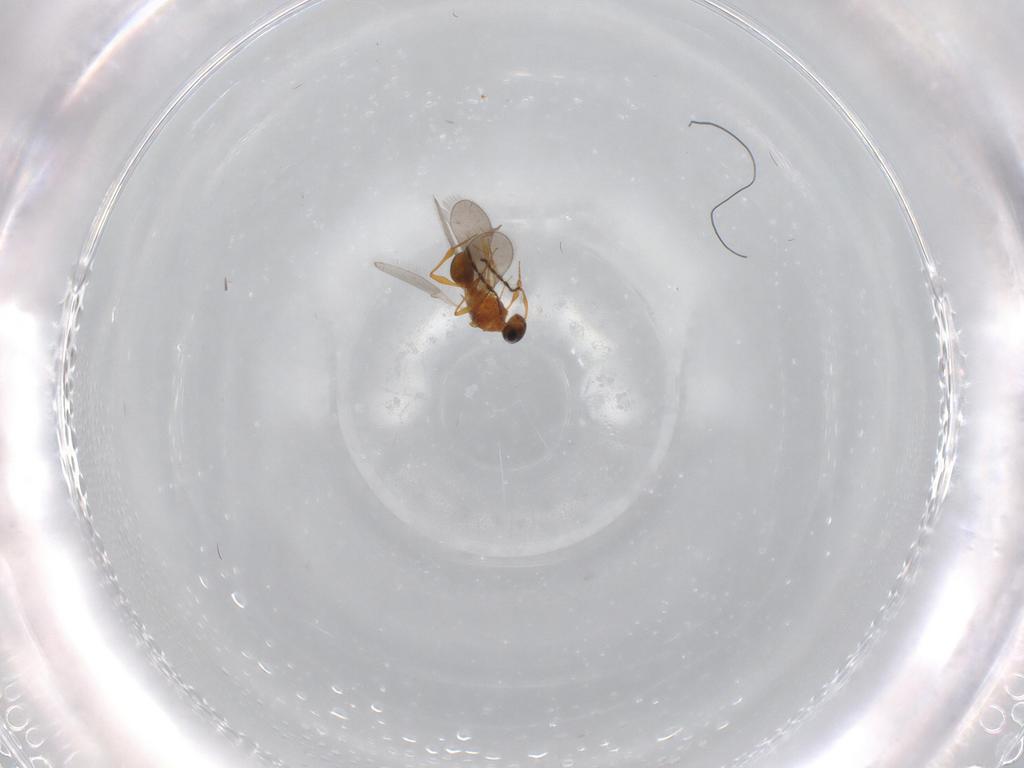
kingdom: Animalia
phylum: Arthropoda
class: Insecta
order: Hymenoptera
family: Platygastridae
